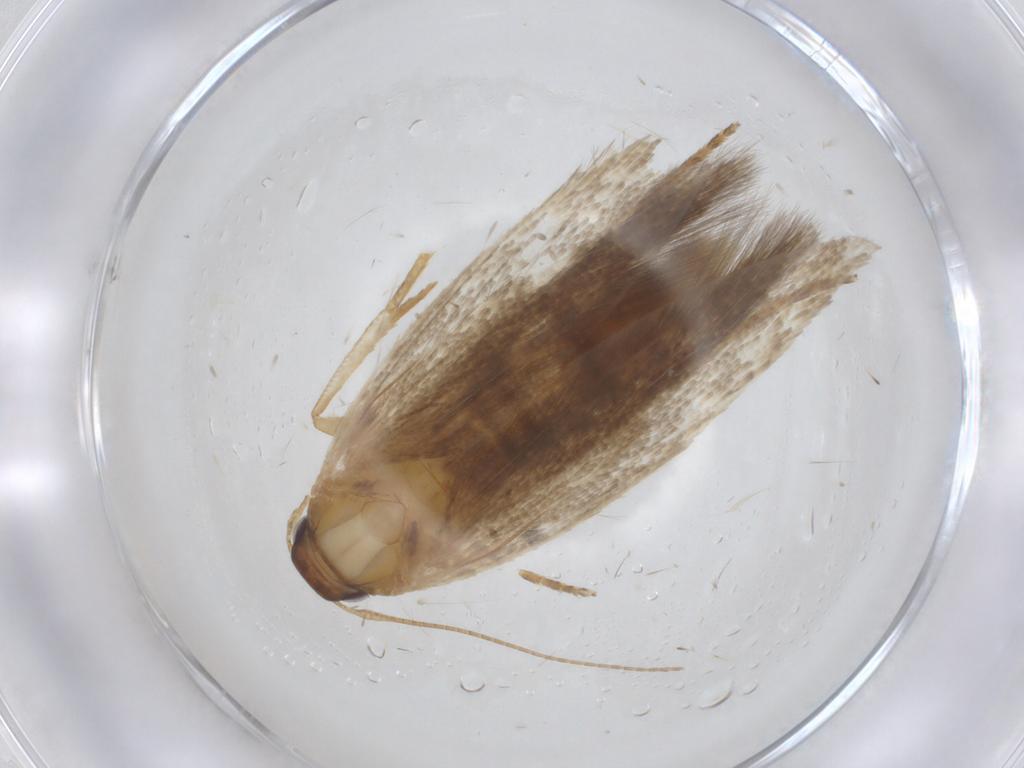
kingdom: Animalia
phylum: Arthropoda
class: Insecta
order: Lepidoptera
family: Gelechiidae
